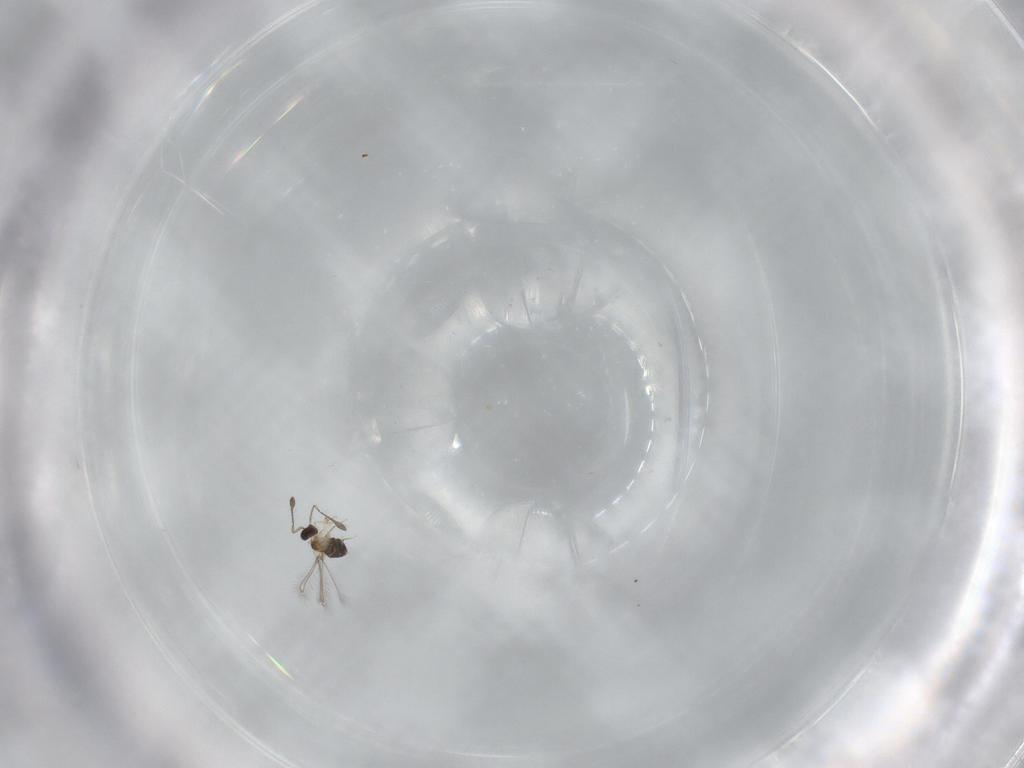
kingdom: Animalia
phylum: Arthropoda
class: Insecta
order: Hymenoptera
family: Mymaridae
